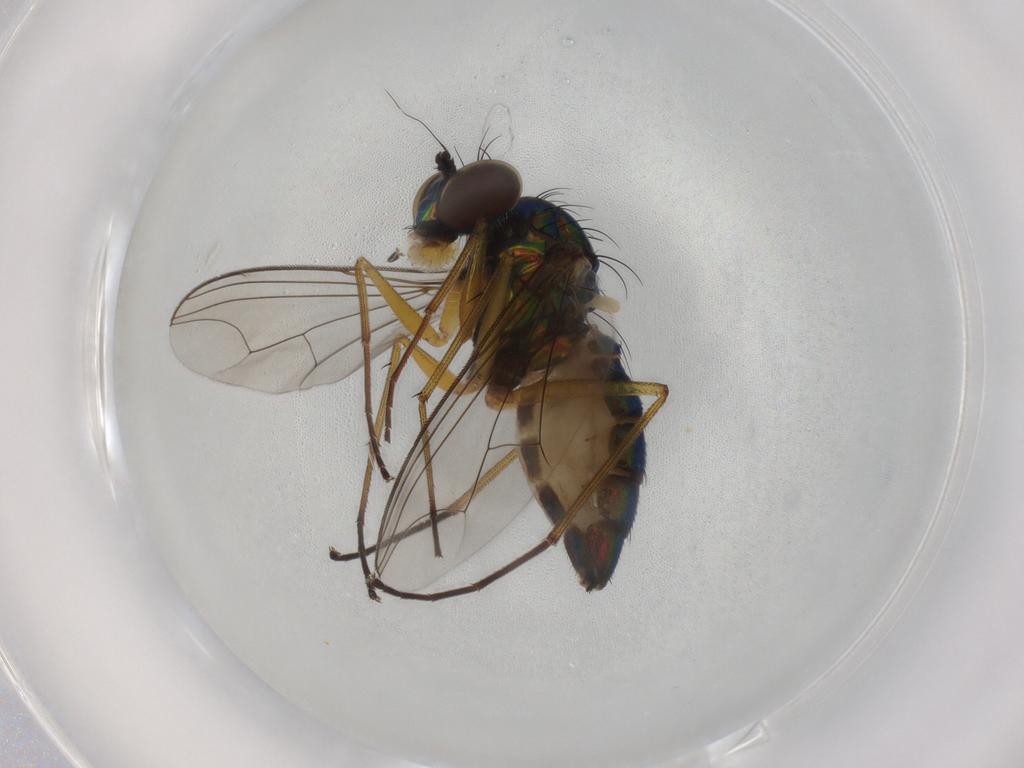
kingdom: Animalia
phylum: Arthropoda
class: Insecta
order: Diptera
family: Dolichopodidae
